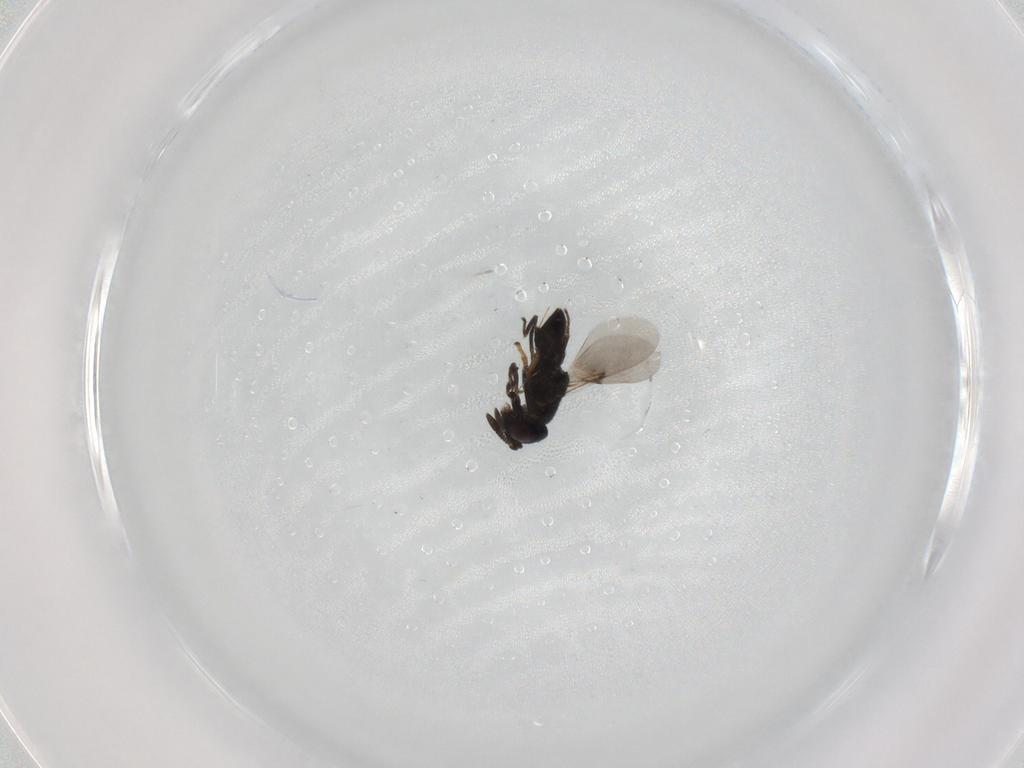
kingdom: Animalia
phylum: Arthropoda
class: Insecta
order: Hymenoptera
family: Encyrtidae
